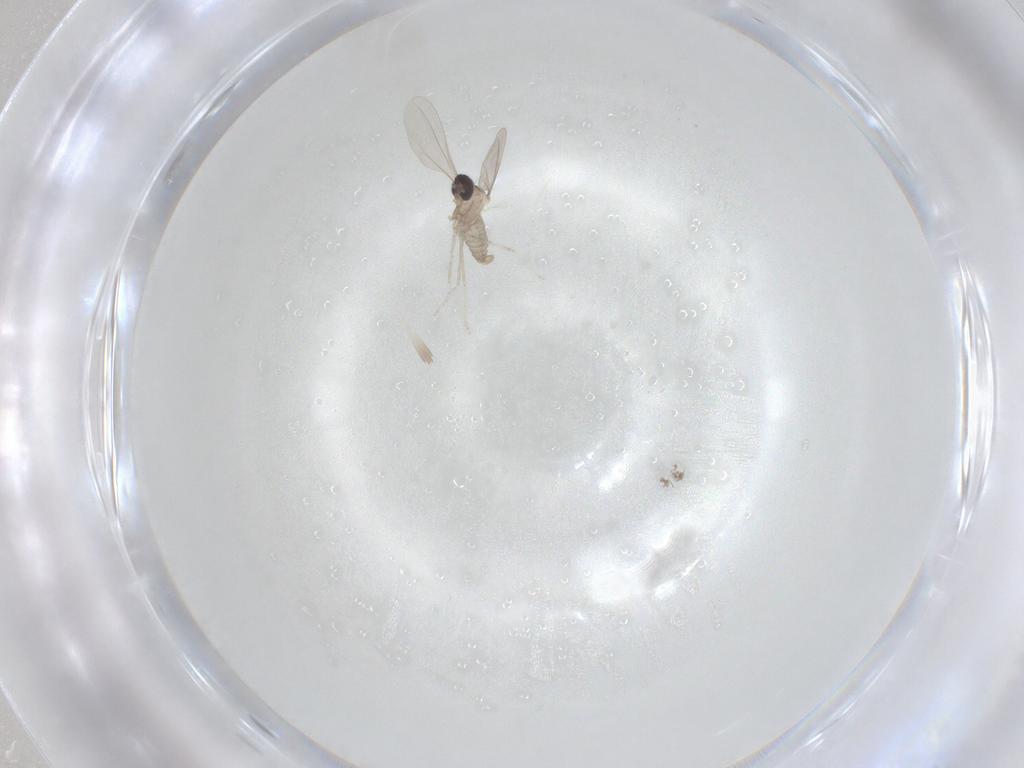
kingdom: Animalia
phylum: Arthropoda
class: Insecta
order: Diptera
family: Cecidomyiidae
